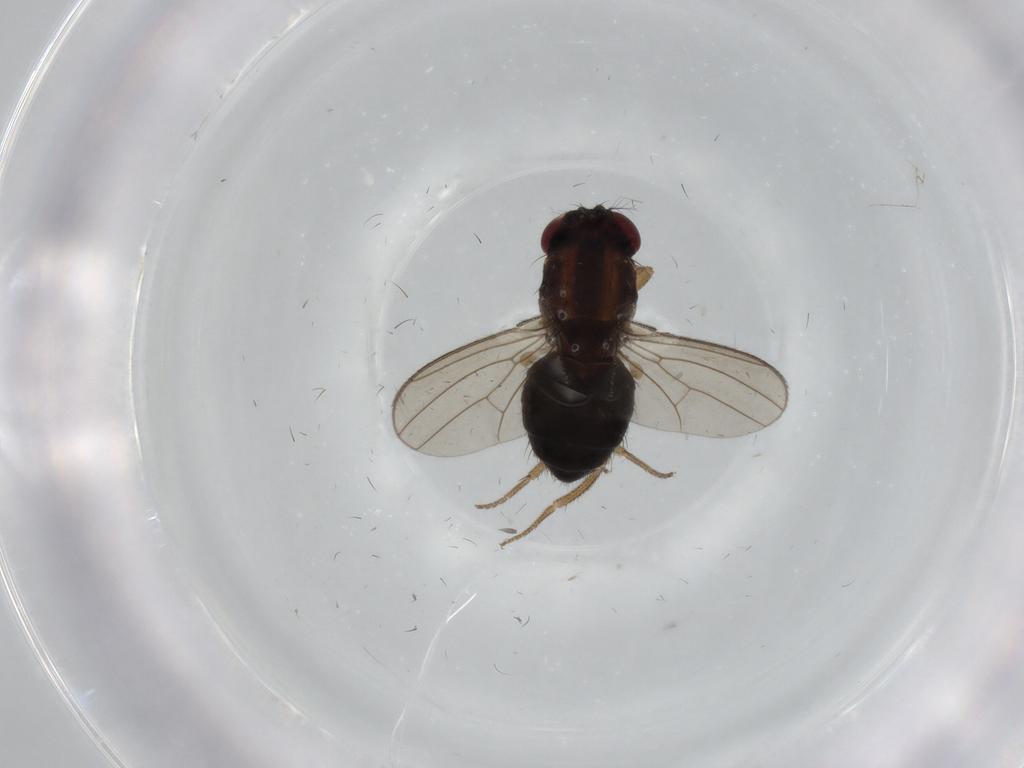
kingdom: Animalia
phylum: Arthropoda
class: Insecta
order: Diptera
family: Drosophilidae
